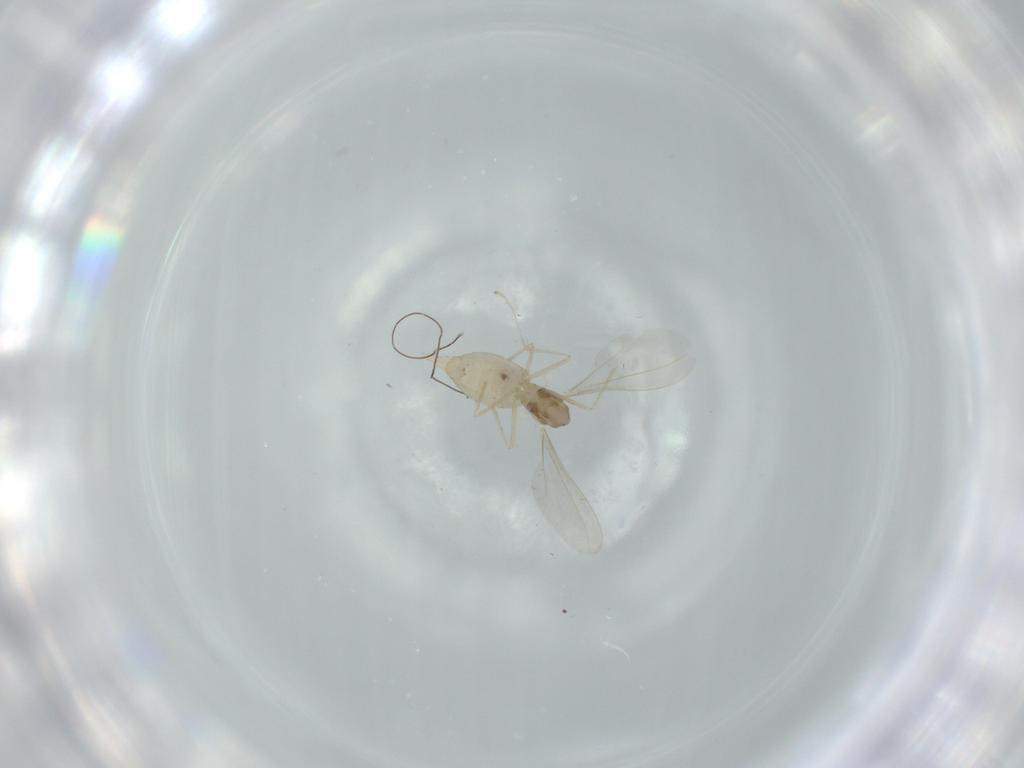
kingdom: Animalia
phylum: Arthropoda
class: Insecta
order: Diptera
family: Cecidomyiidae
